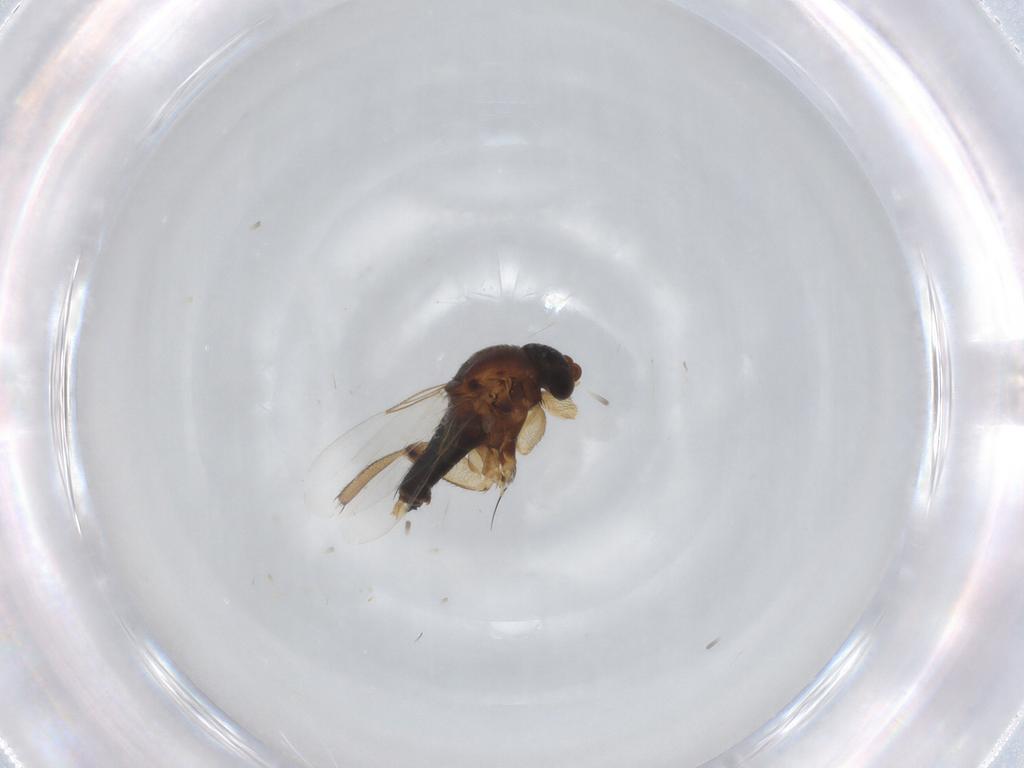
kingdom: Animalia
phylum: Arthropoda
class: Insecta
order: Diptera
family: Phoridae
